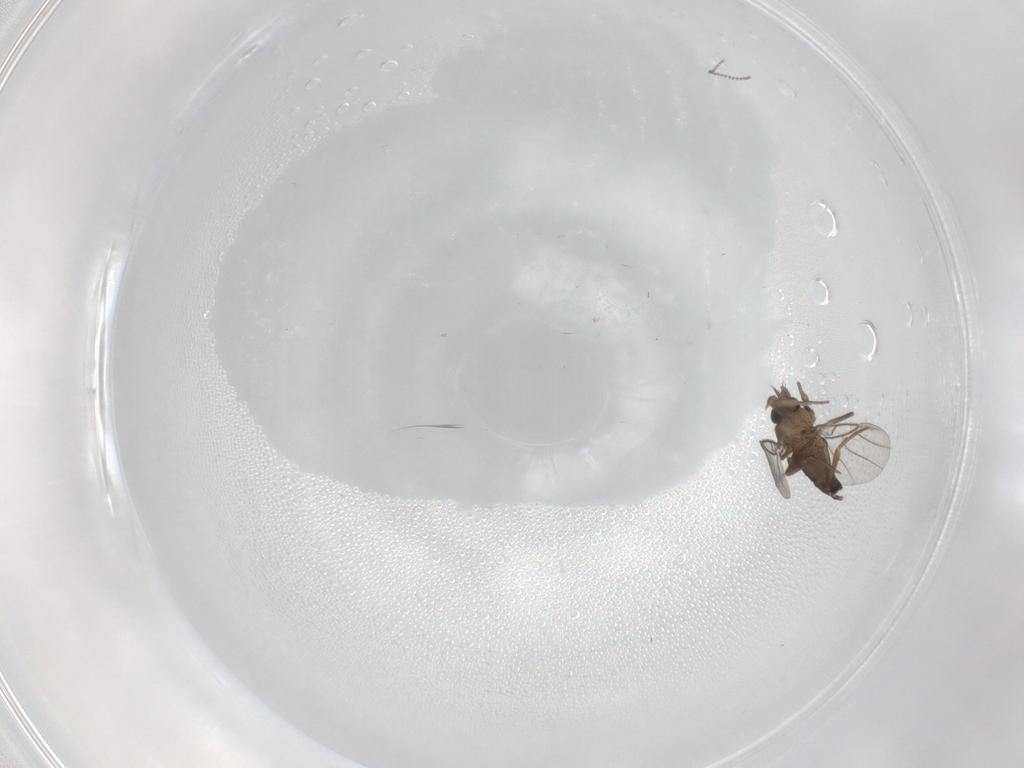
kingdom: Animalia
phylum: Arthropoda
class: Insecta
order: Diptera
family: Phoridae
